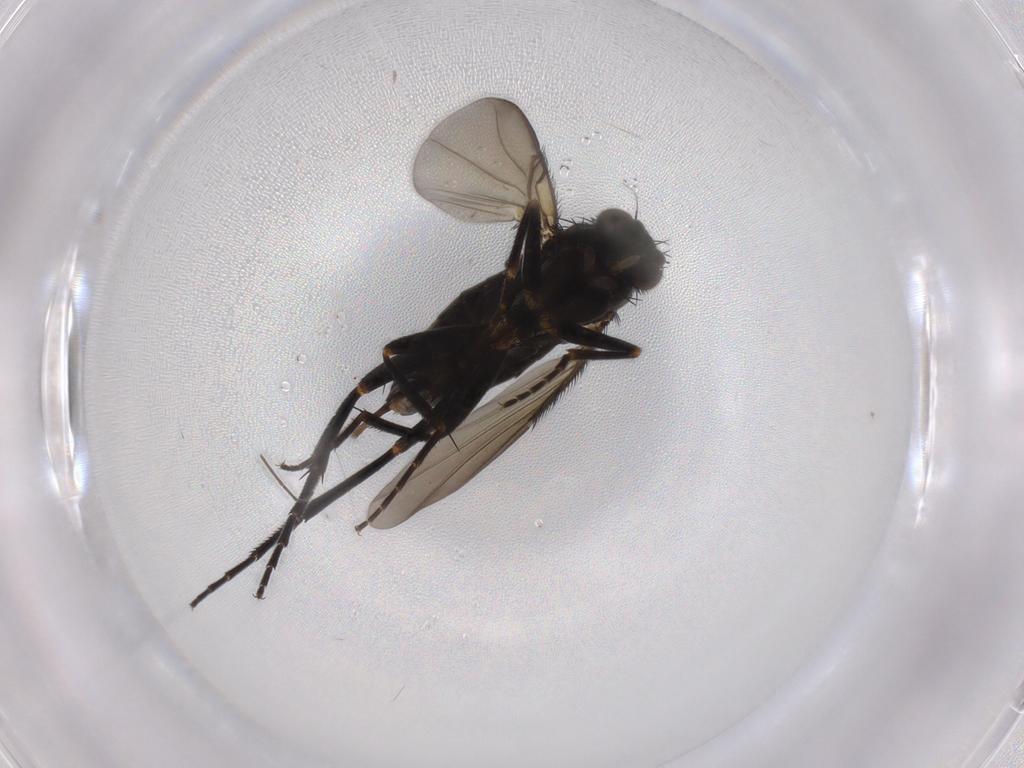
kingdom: Animalia
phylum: Arthropoda
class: Insecta
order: Diptera
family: Phoridae
